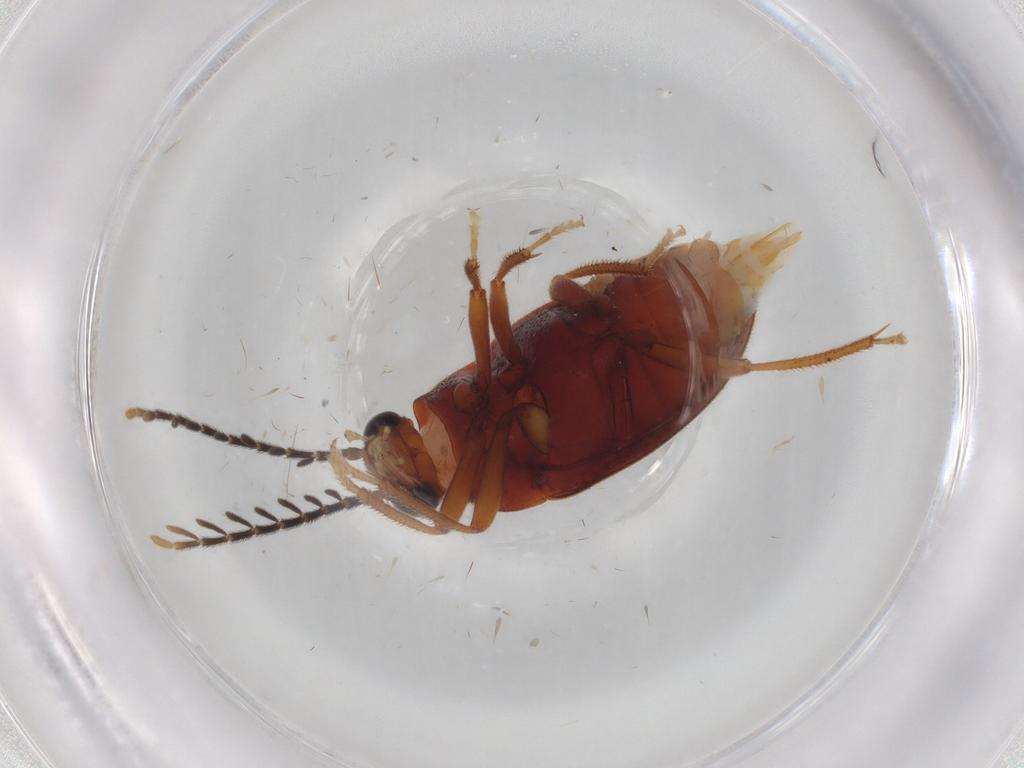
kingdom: Animalia
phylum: Arthropoda
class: Insecta
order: Coleoptera
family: Ptilodactylidae
